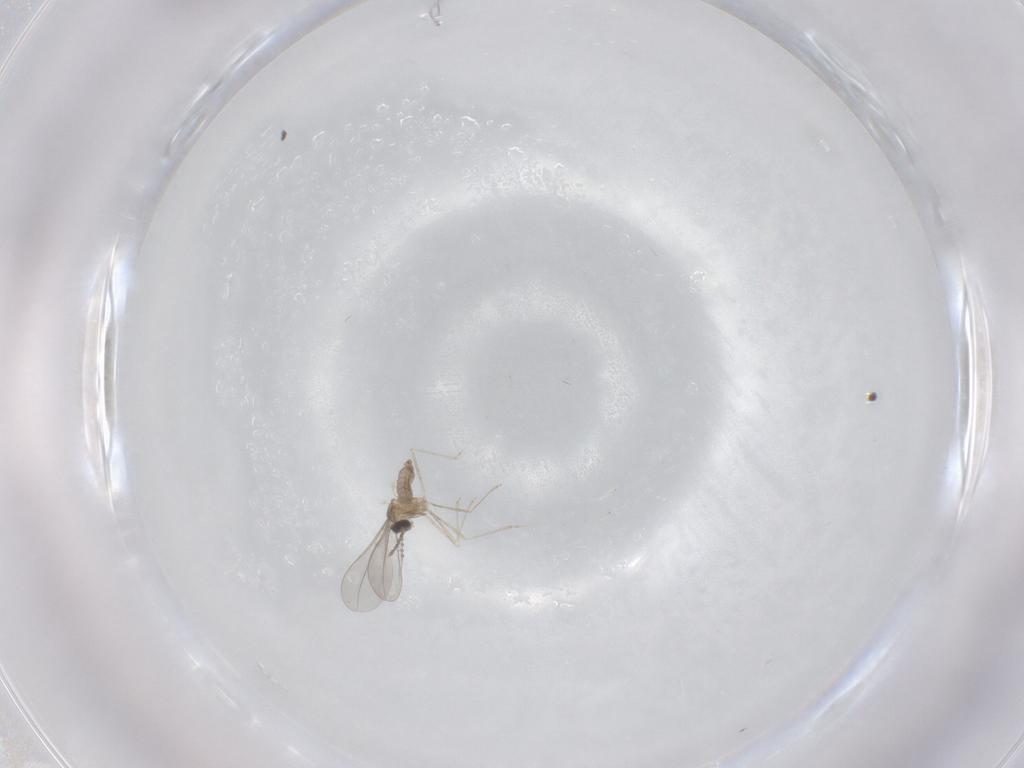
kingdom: Animalia
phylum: Arthropoda
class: Insecta
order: Diptera
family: Cecidomyiidae
